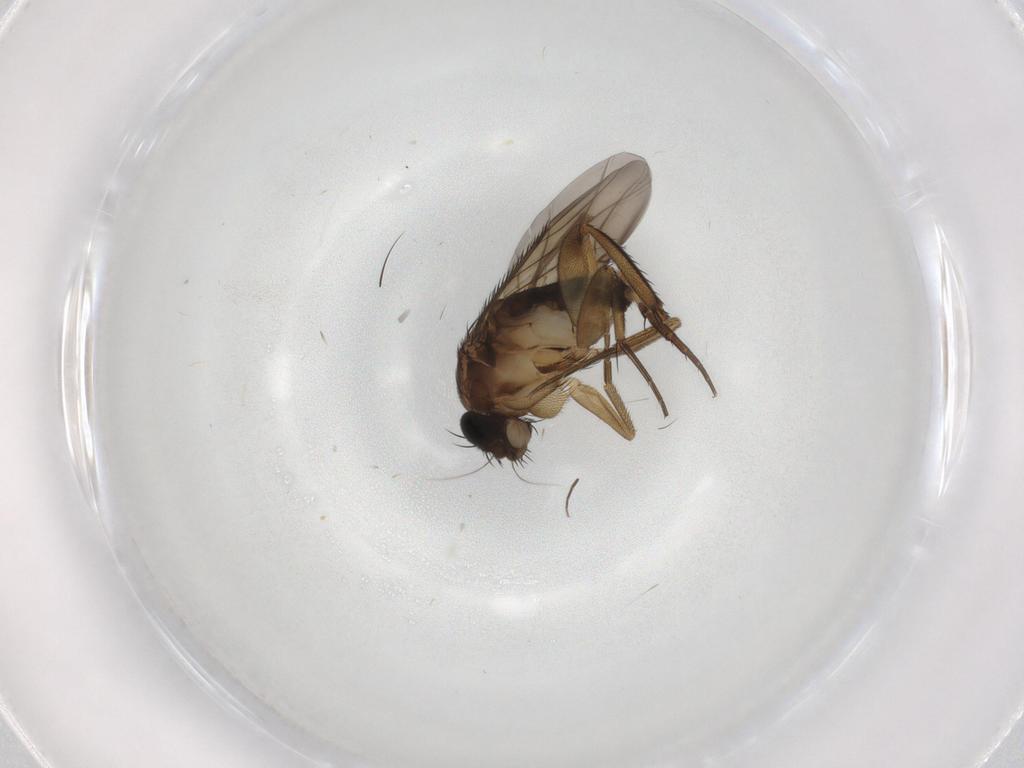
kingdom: Animalia
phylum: Arthropoda
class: Insecta
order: Diptera
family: Phoridae
